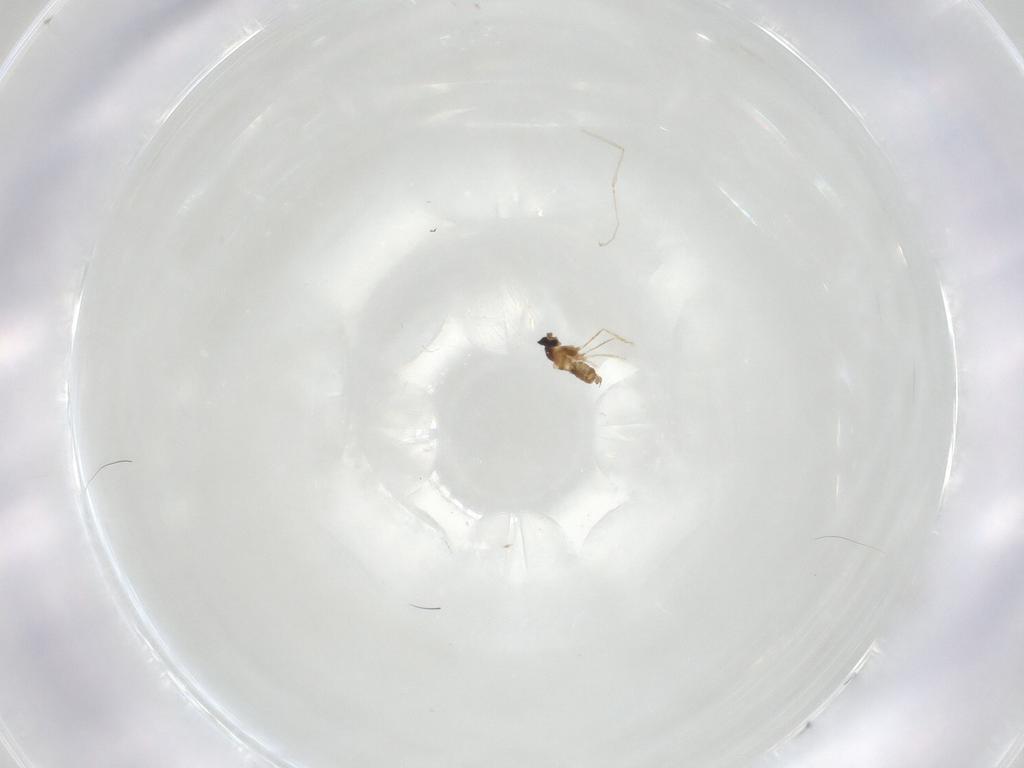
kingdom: Animalia
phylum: Arthropoda
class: Insecta
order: Diptera
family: Cecidomyiidae
